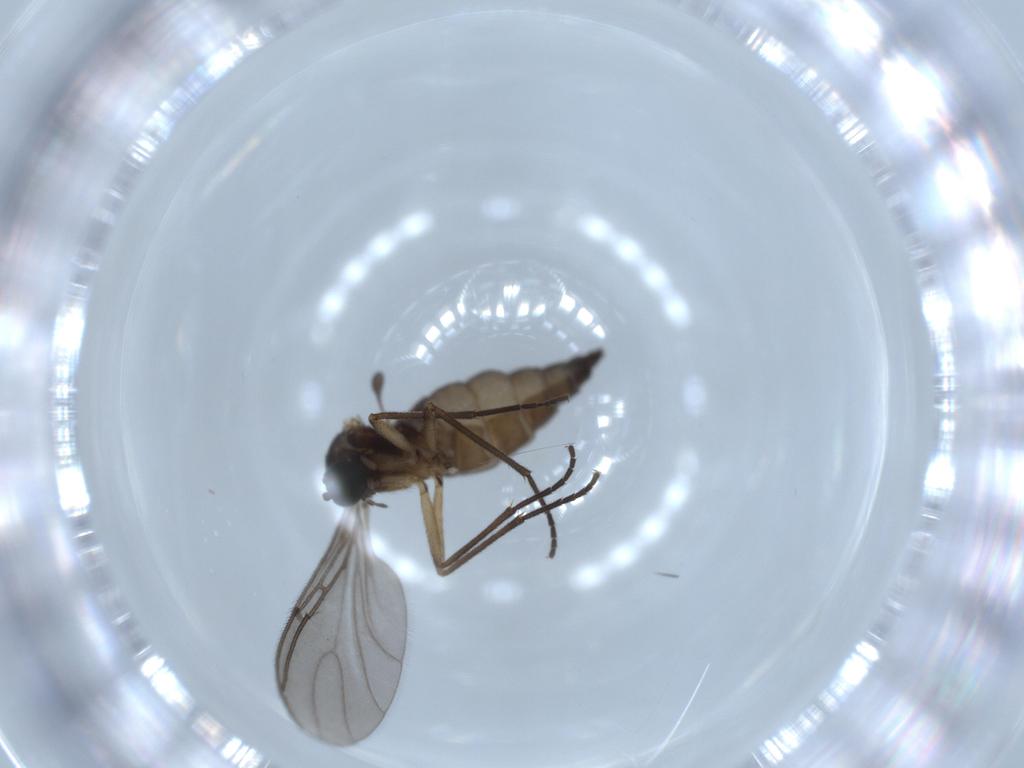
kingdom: Animalia
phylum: Arthropoda
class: Insecta
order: Diptera
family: Sciaridae
